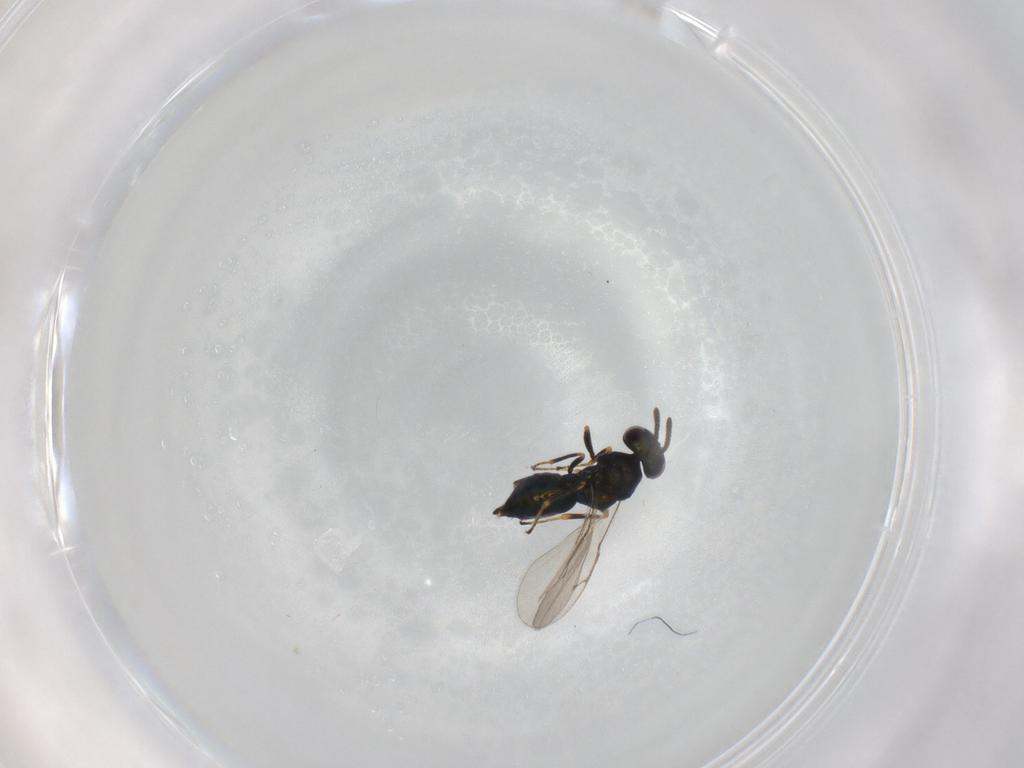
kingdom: Animalia
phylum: Arthropoda
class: Insecta
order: Hymenoptera
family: Pteromalidae
